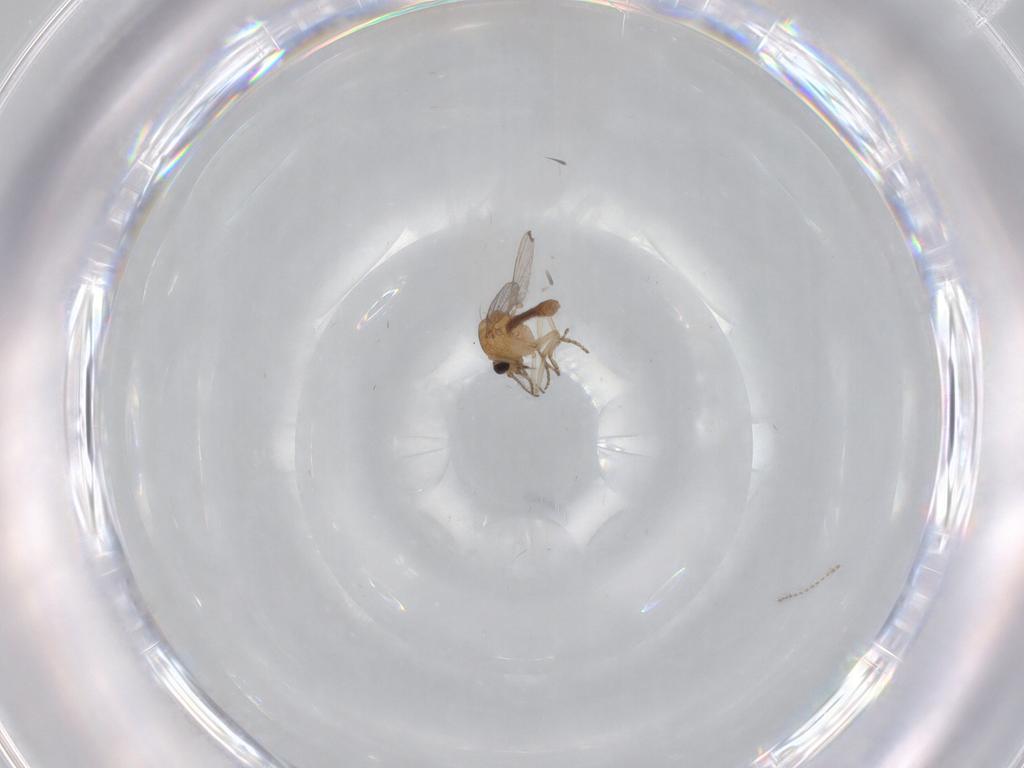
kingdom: Animalia
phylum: Arthropoda
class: Insecta
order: Diptera
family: Ceratopogonidae
